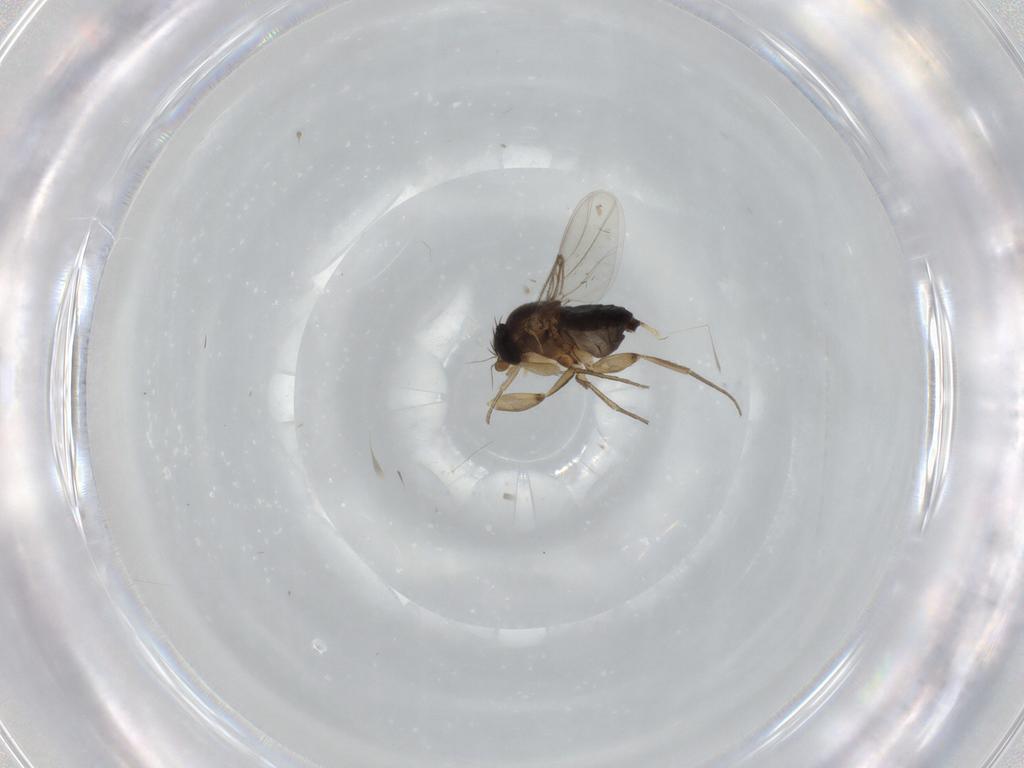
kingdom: Animalia
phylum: Arthropoda
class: Insecta
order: Diptera
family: Phoridae
